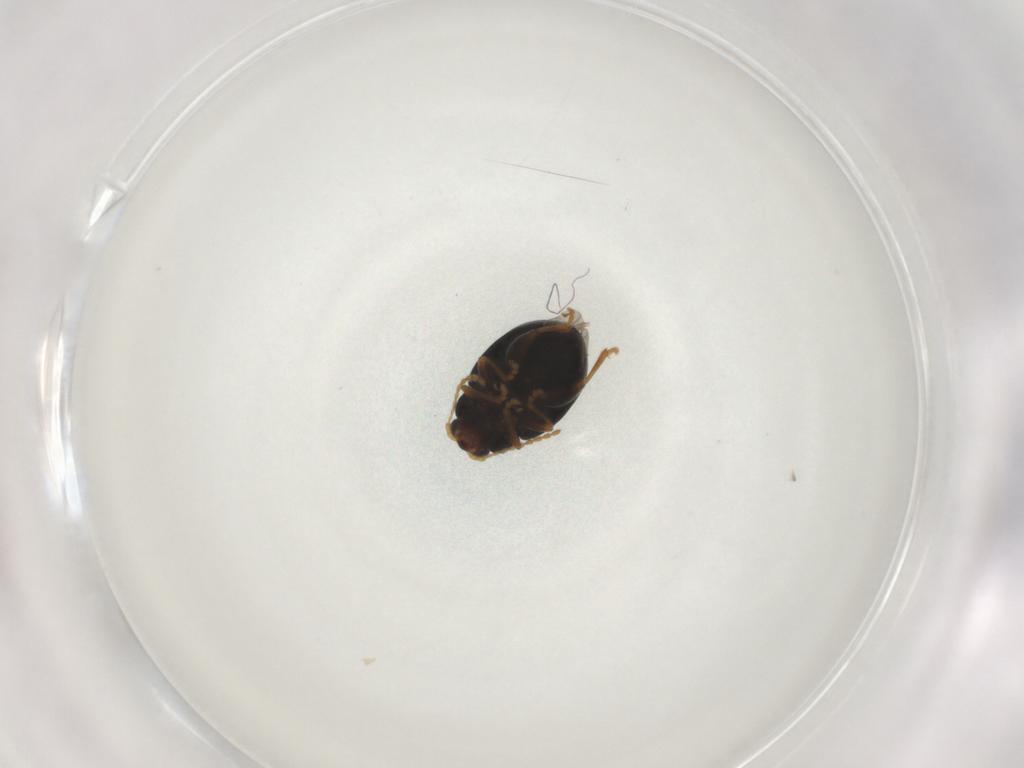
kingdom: Animalia
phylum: Arthropoda
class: Insecta
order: Coleoptera
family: Chrysomelidae
